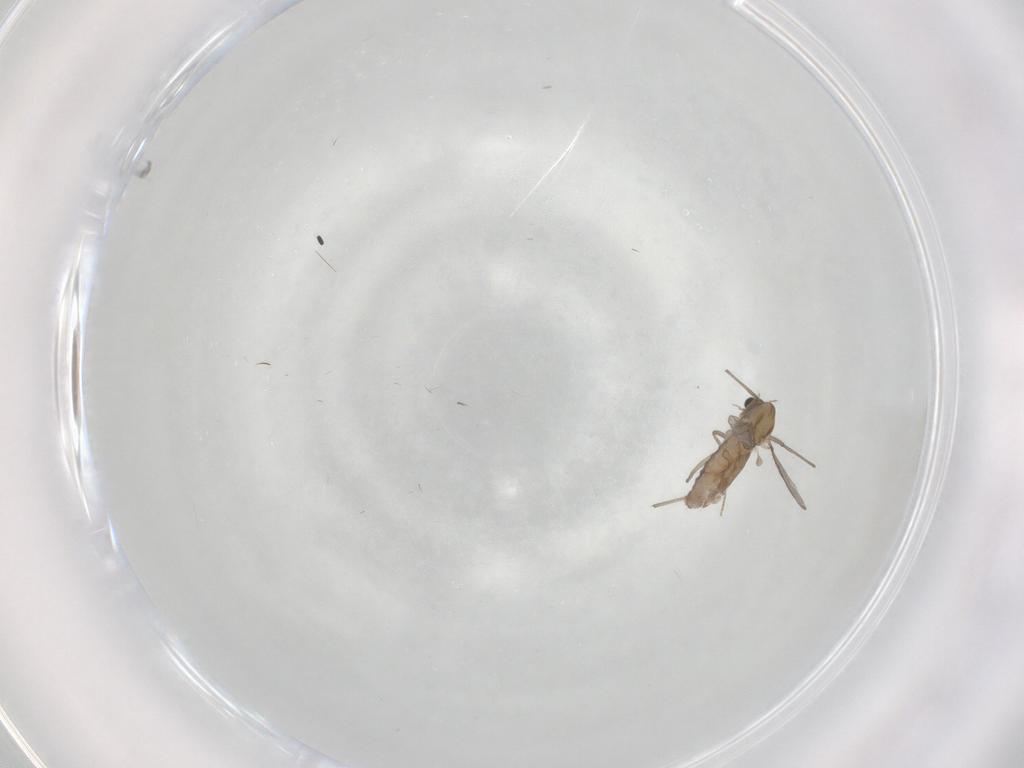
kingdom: Animalia
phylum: Arthropoda
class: Insecta
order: Diptera
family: Chironomidae
